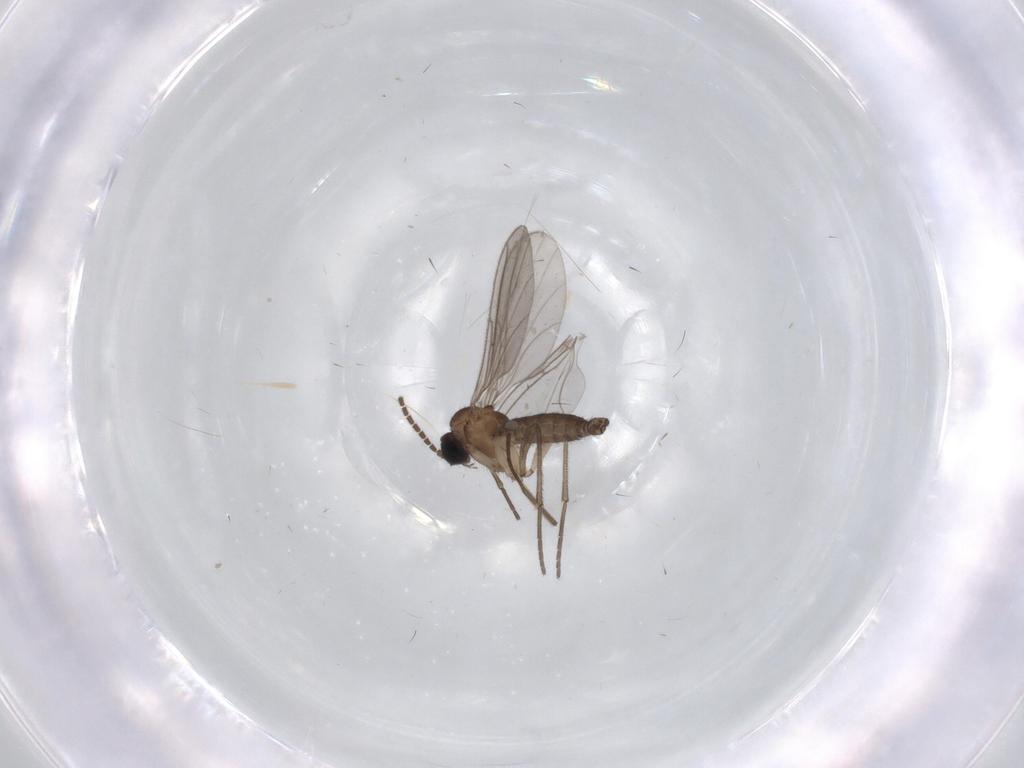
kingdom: Animalia
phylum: Arthropoda
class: Insecta
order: Diptera
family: Sciaridae
